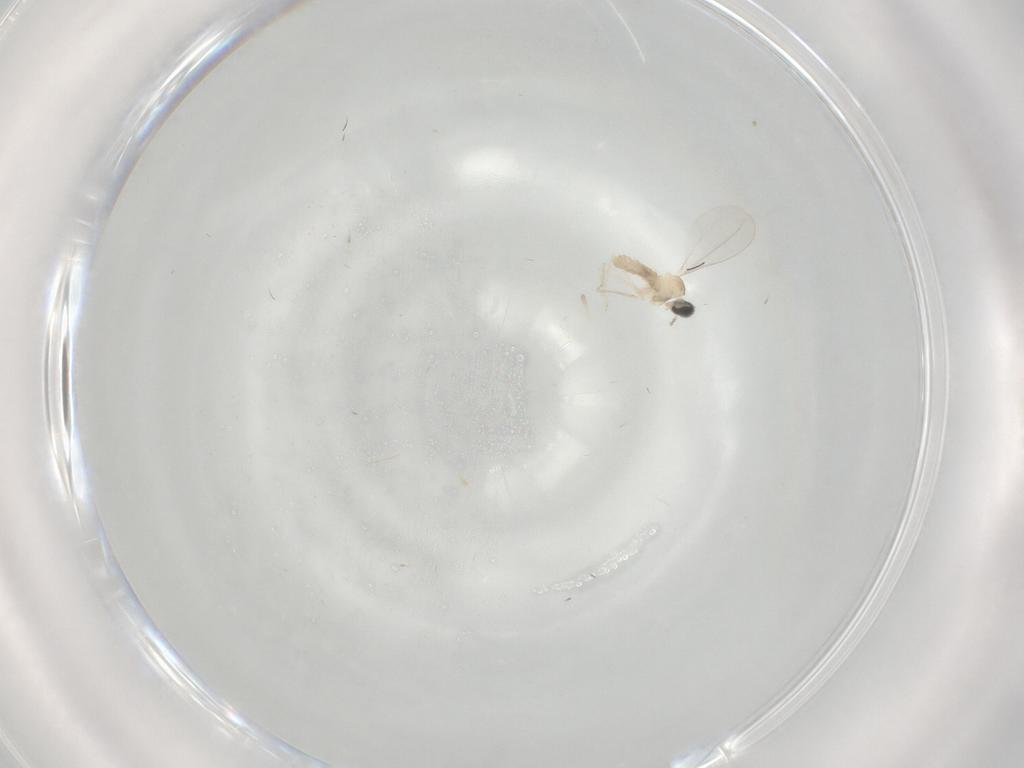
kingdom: Animalia
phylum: Arthropoda
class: Insecta
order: Diptera
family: Cecidomyiidae
